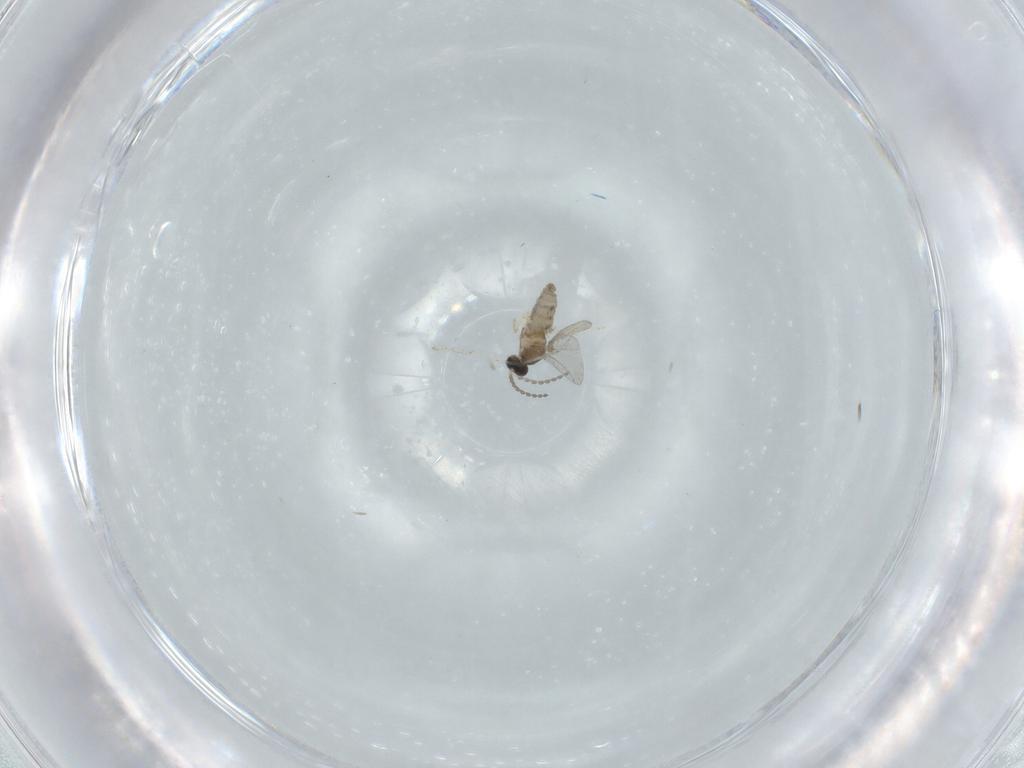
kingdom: Animalia
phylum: Arthropoda
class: Insecta
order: Diptera
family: Cecidomyiidae
